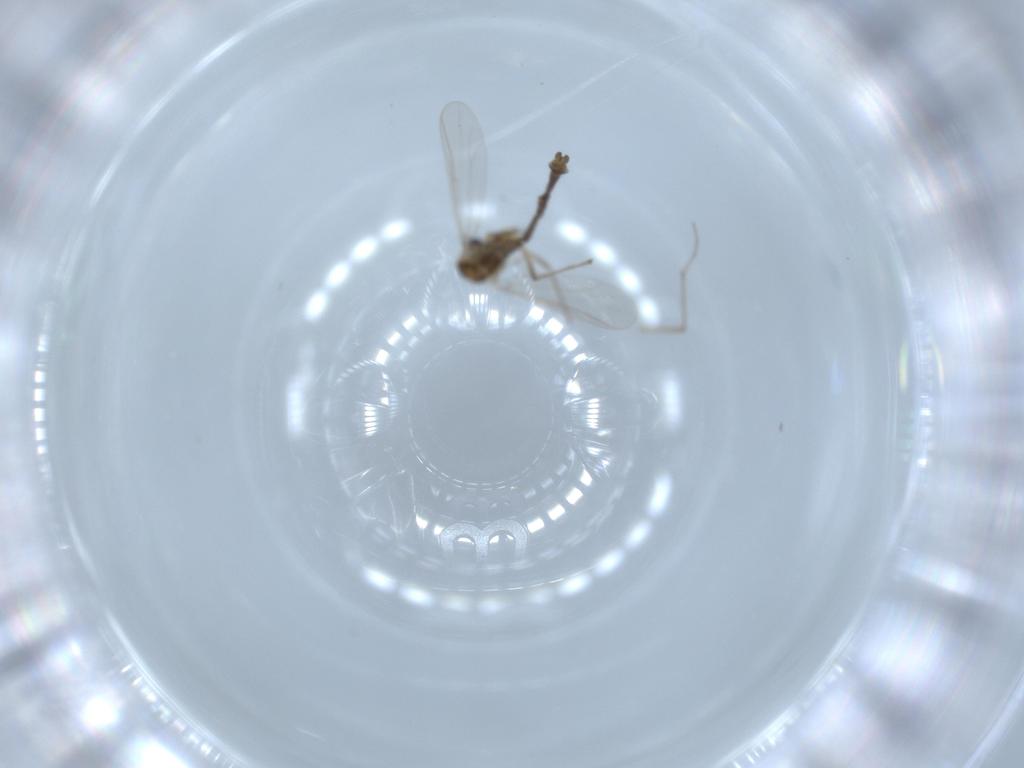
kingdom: Animalia
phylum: Arthropoda
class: Insecta
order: Diptera
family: Chironomidae
